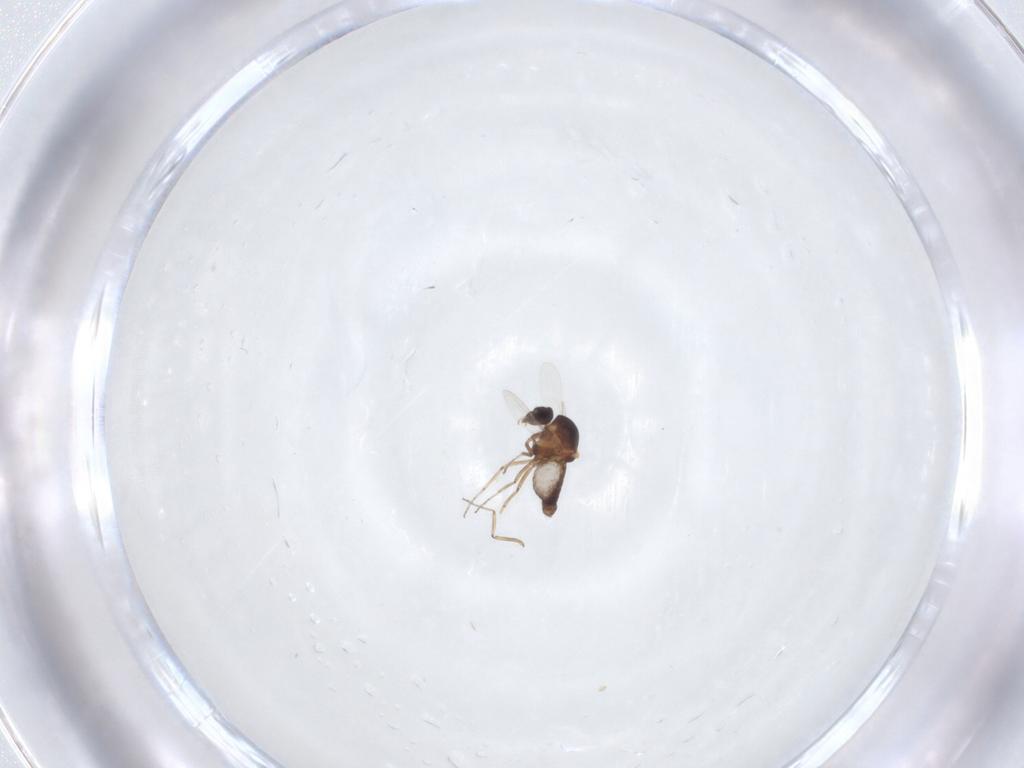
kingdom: Animalia
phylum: Arthropoda
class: Insecta
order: Diptera
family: Ceratopogonidae
